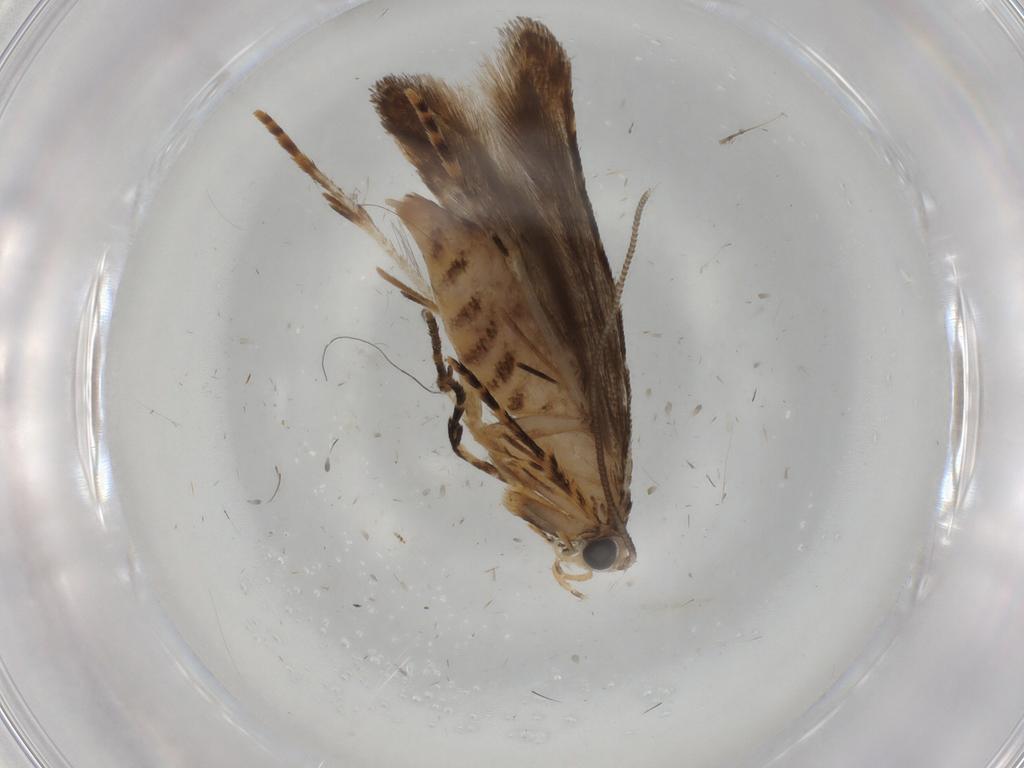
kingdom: Animalia
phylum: Arthropoda
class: Insecta
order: Lepidoptera
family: Tineidae
